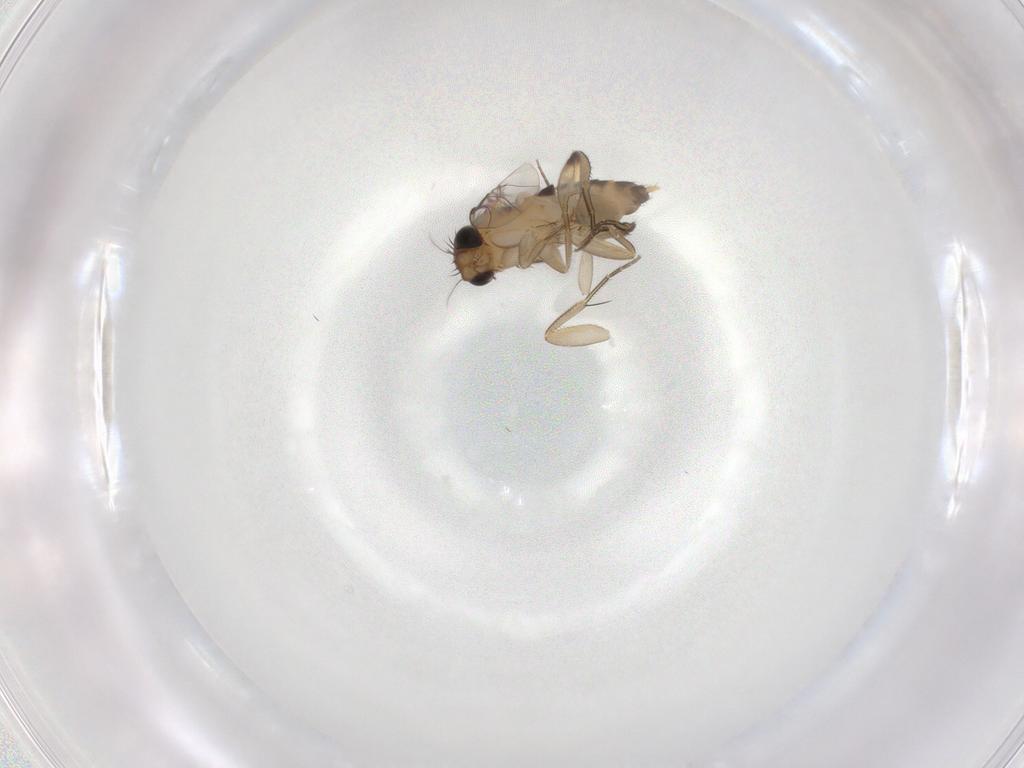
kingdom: Animalia
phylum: Arthropoda
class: Insecta
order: Diptera
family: Phoridae
